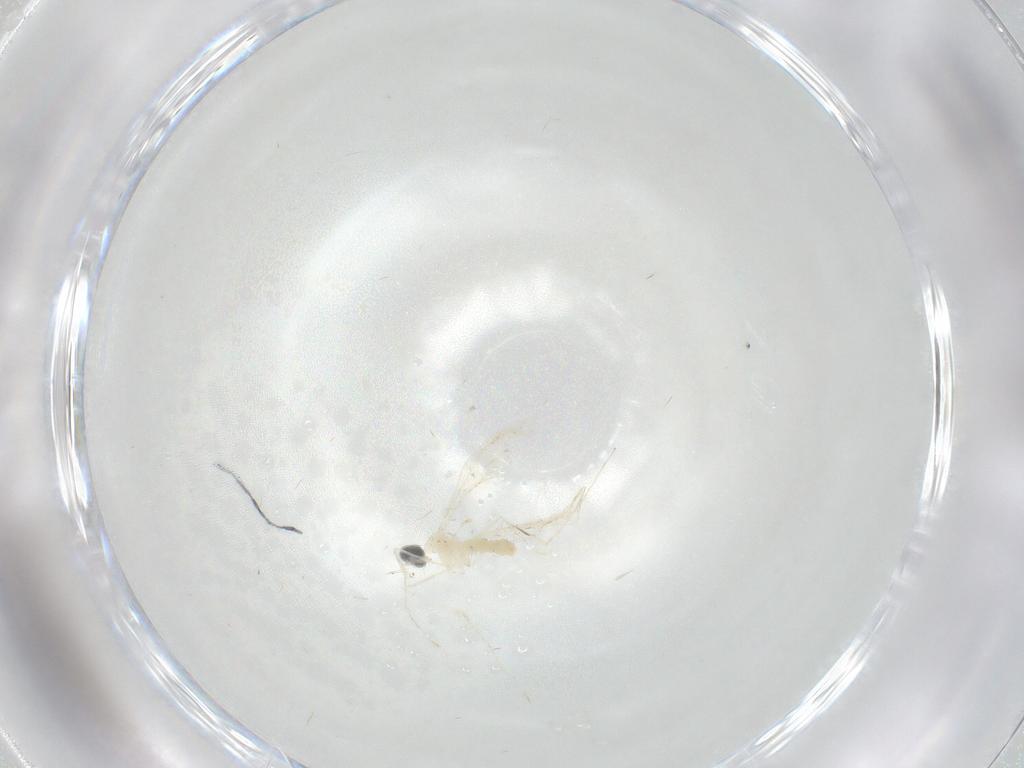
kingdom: Animalia
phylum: Arthropoda
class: Insecta
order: Diptera
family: Cecidomyiidae
